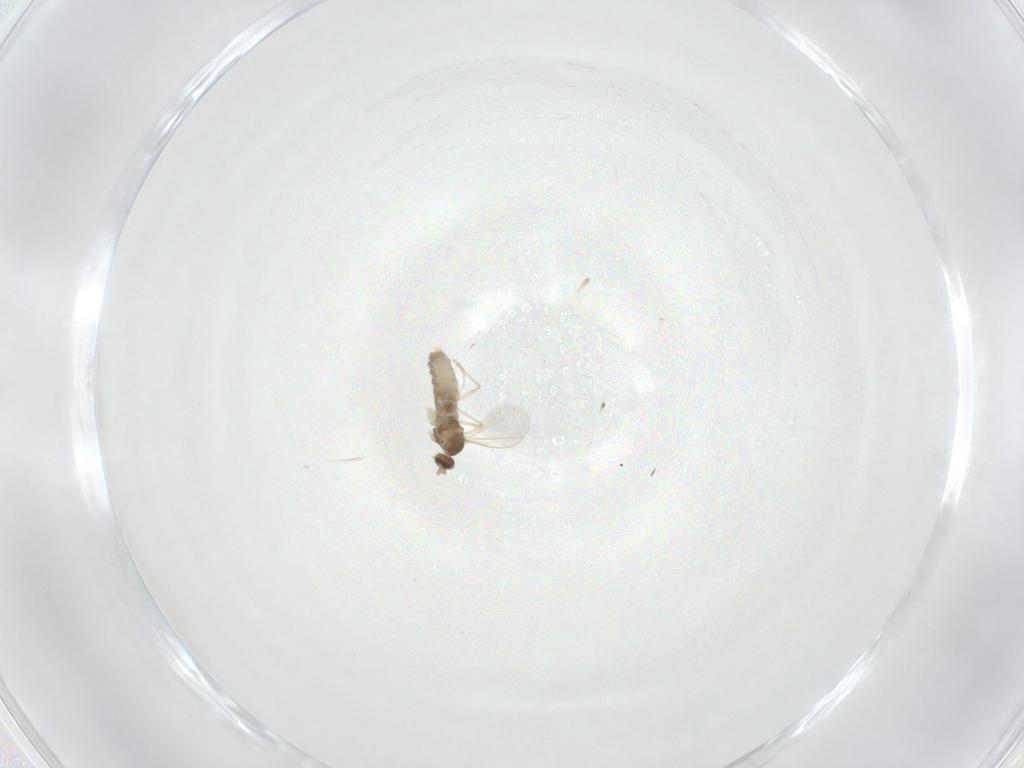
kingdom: Animalia
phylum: Arthropoda
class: Insecta
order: Diptera
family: Cecidomyiidae
